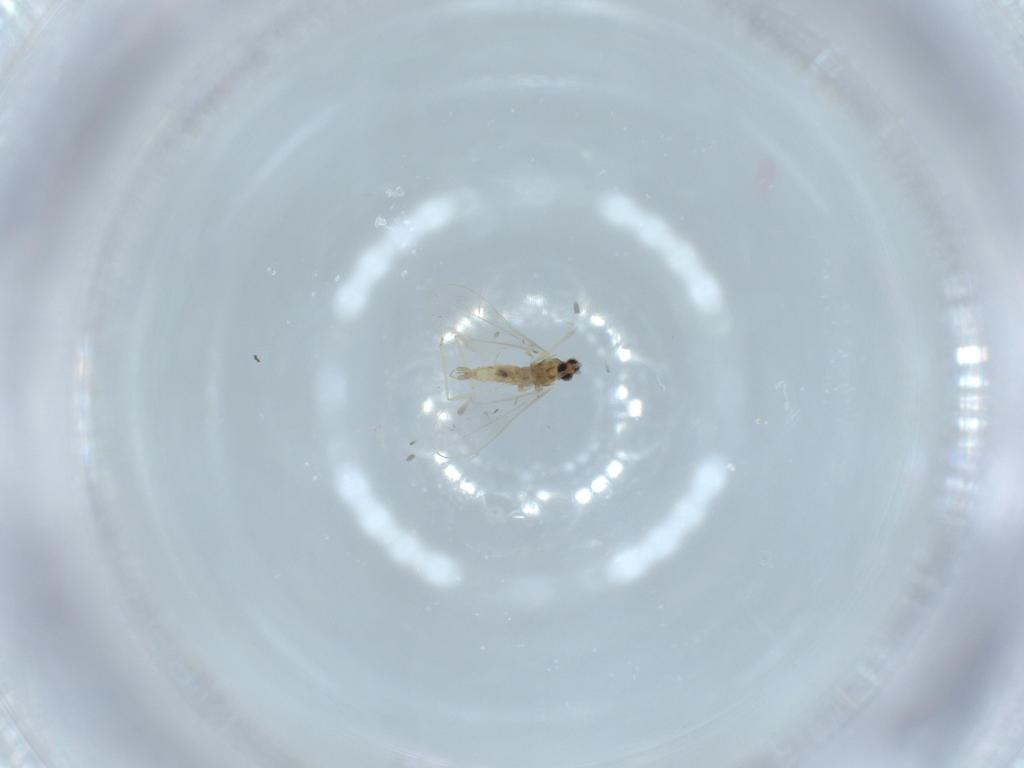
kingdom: Animalia
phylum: Arthropoda
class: Insecta
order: Diptera
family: Cecidomyiidae
